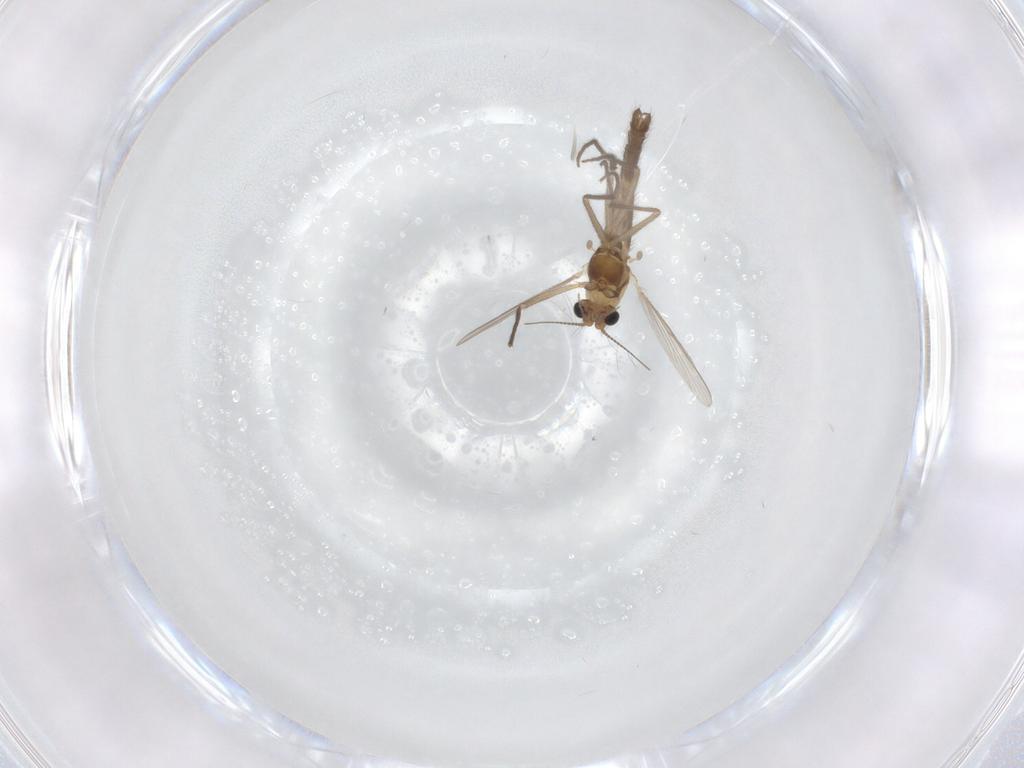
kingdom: Animalia
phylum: Arthropoda
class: Insecta
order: Diptera
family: Chironomidae
